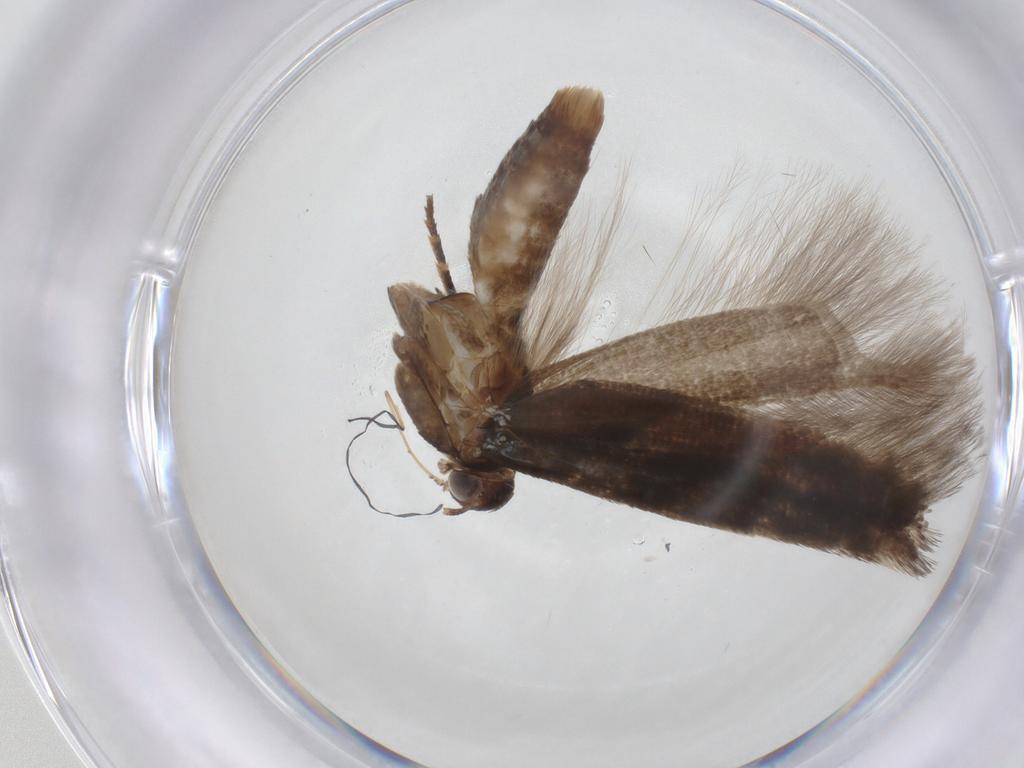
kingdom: Animalia
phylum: Arthropoda
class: Insecta
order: Lepidoptera
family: Gelechiidae
